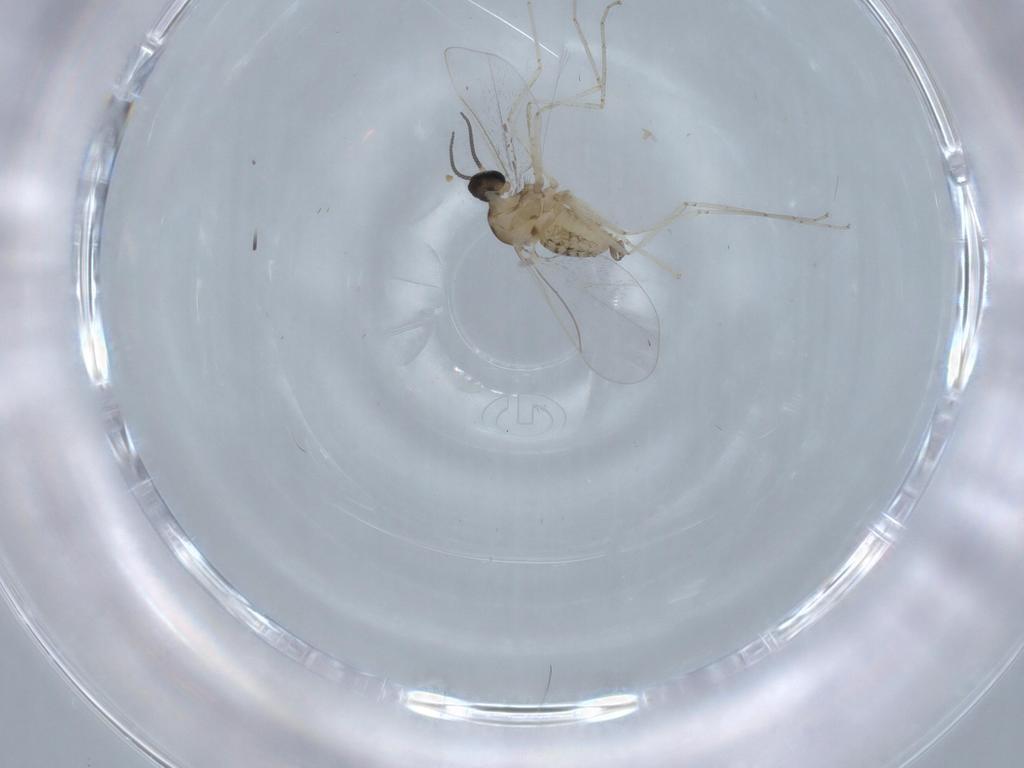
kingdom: Animalia
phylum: Arthropoda
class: Insecta
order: Diptera
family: Cecidomyiidae
